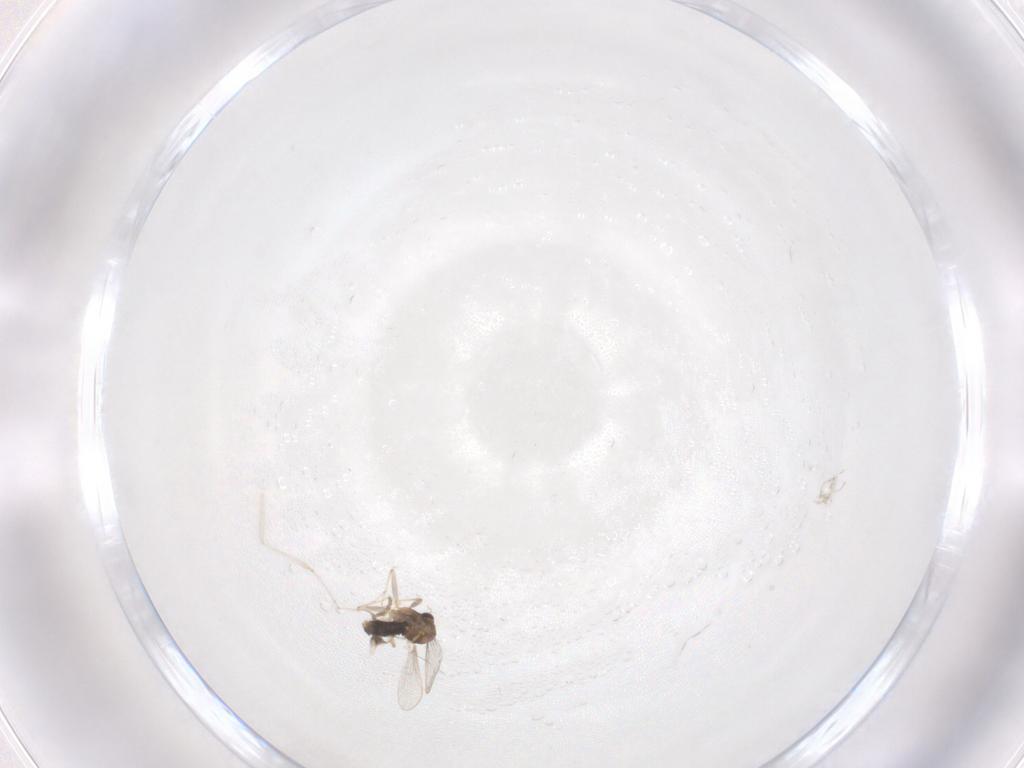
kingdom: Animalia
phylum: Arthropoda
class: Insecta
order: Diptera
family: Chironomidae
